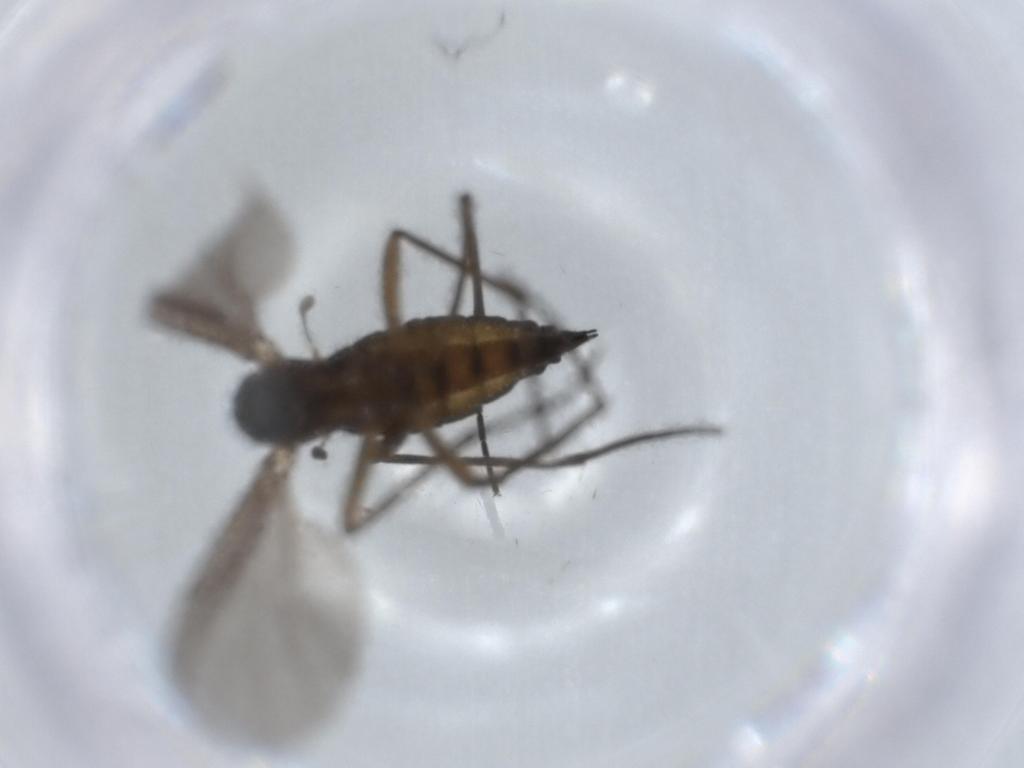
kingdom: Animalia
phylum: Arthropoda
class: Insecta
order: Diptera
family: Sciaridae
